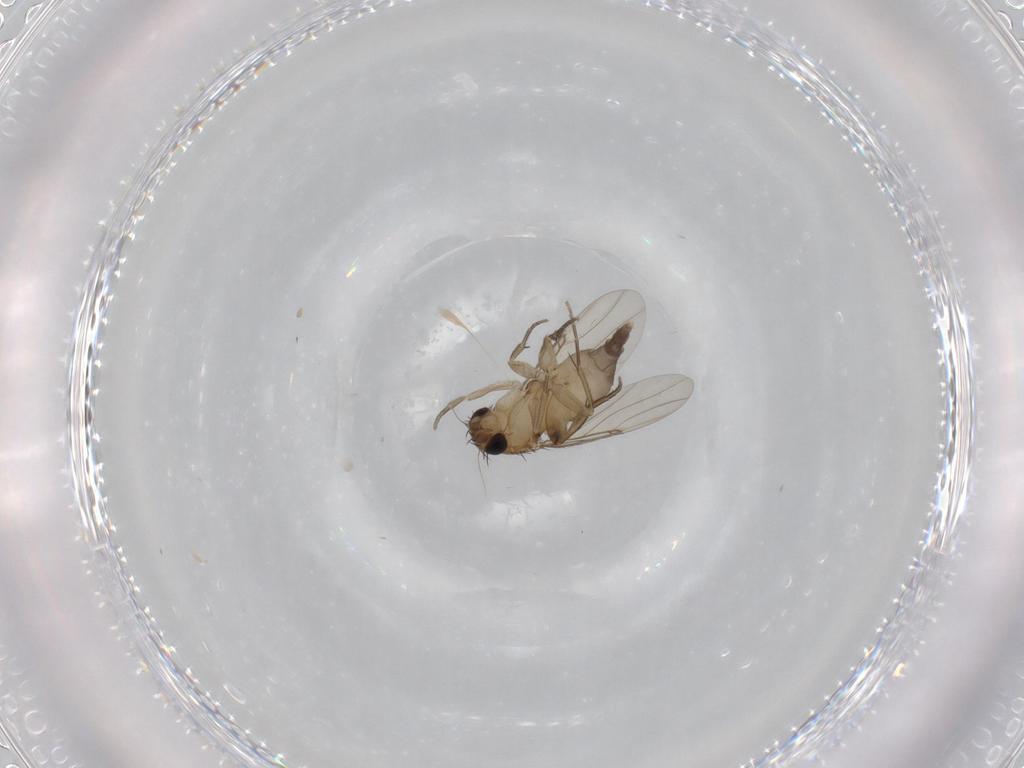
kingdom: Animalia
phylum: Arthropoda
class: Insecta
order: Diptera
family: Phoridae
